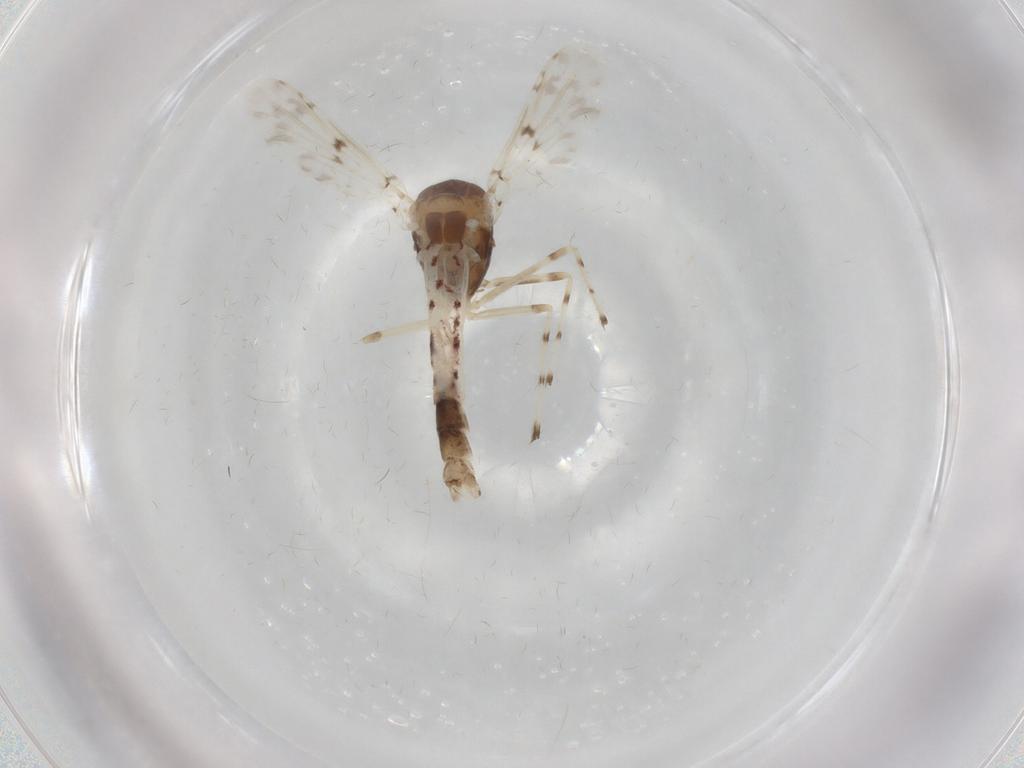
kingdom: Animalia
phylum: Arthropoda
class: Insecta
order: Diptera
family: Chironomidae
